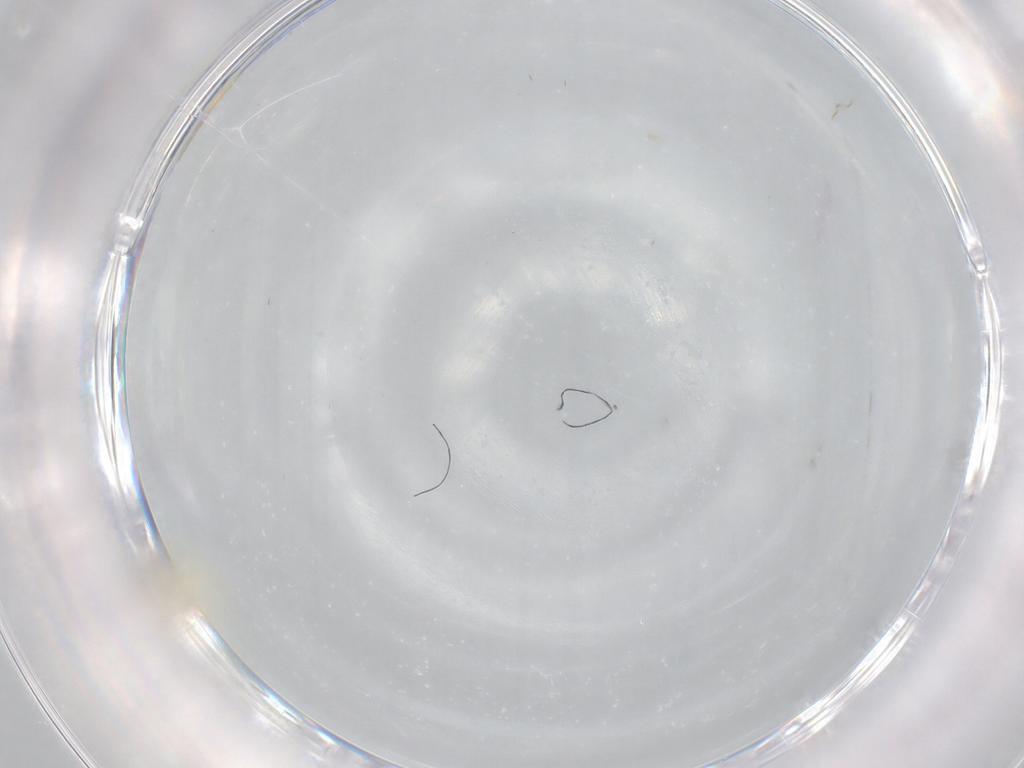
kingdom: Animalia
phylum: Arthropoda
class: Insecta
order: Diptera
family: Cecidomyiidae
